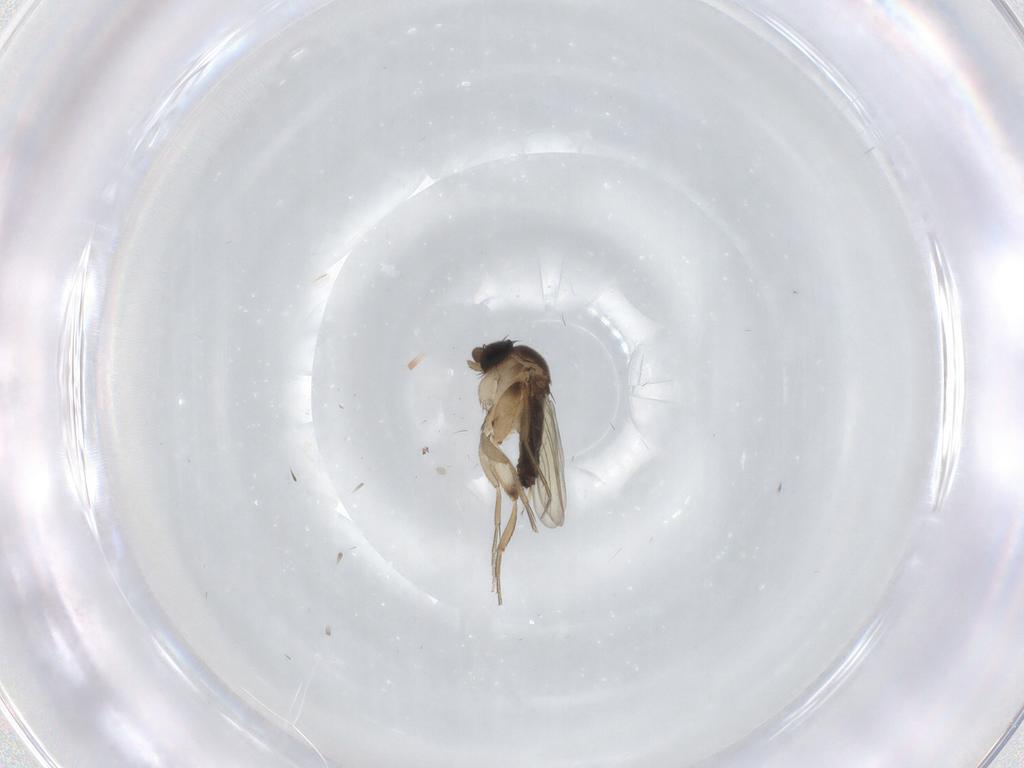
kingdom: Animalia
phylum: Arthropoda
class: Insecta
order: Diptera
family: Phoridae
